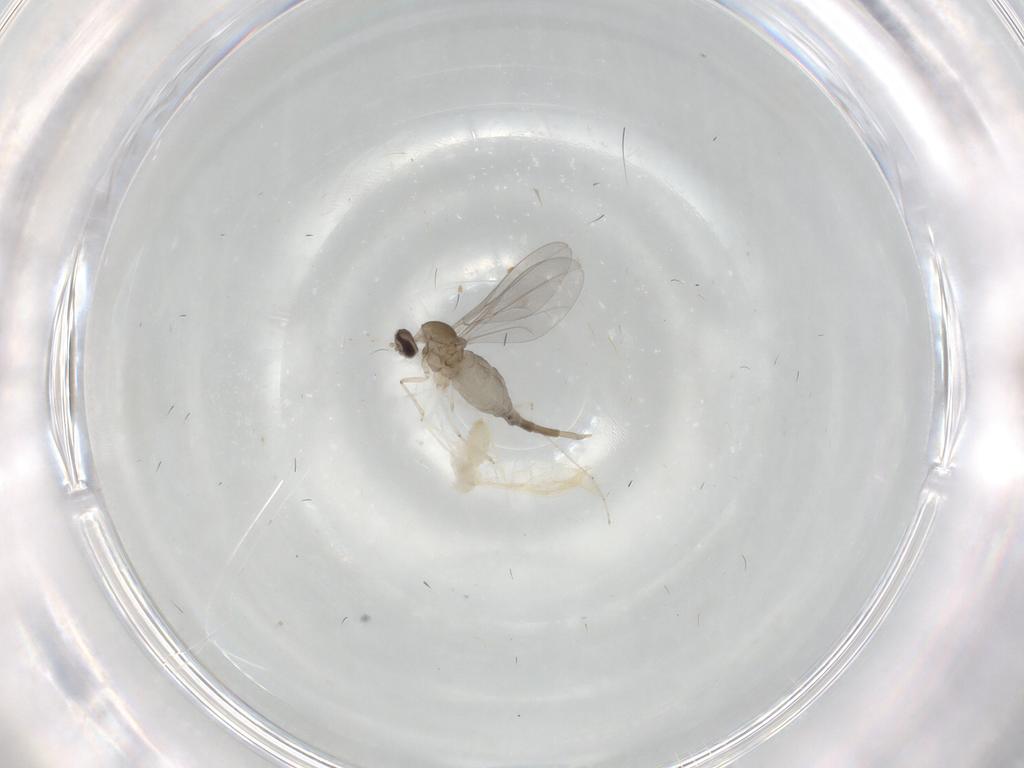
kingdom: Animalia
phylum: Arthropoda
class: Insecta
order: Diptera
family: Cecidomyiidae
